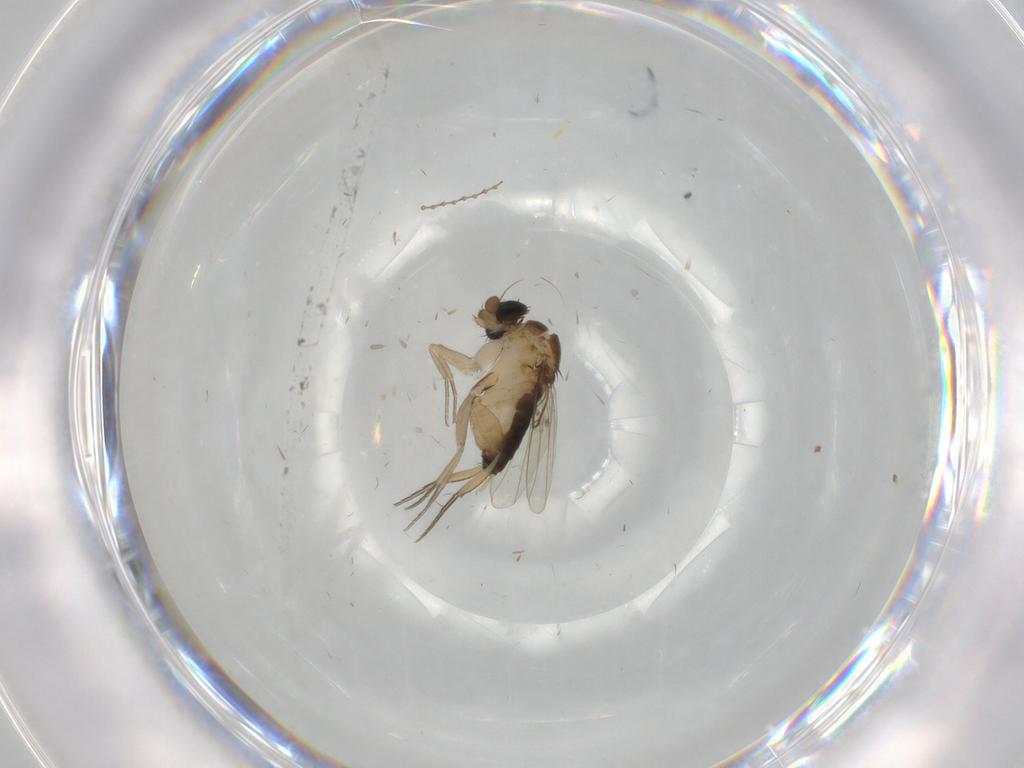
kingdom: Animalia
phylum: Arthropoda
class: Insecta
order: Diptera
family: Phoridae
